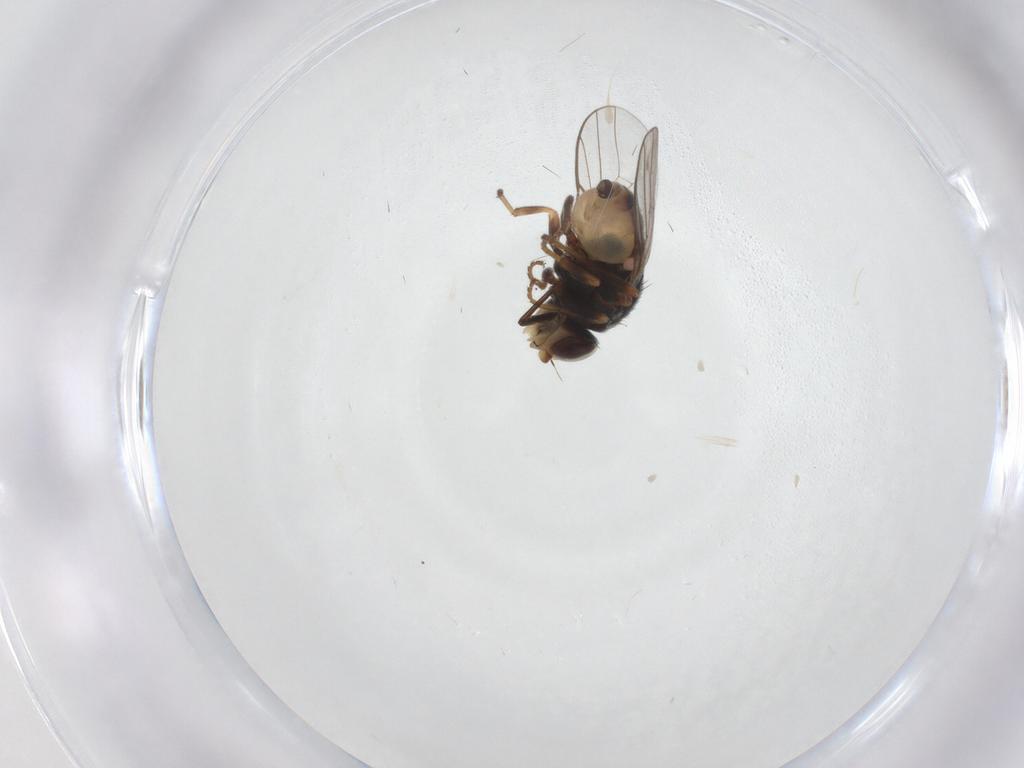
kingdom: Animalia
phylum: Arthropoda
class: Insecta
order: Diptera
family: Chloropidae
